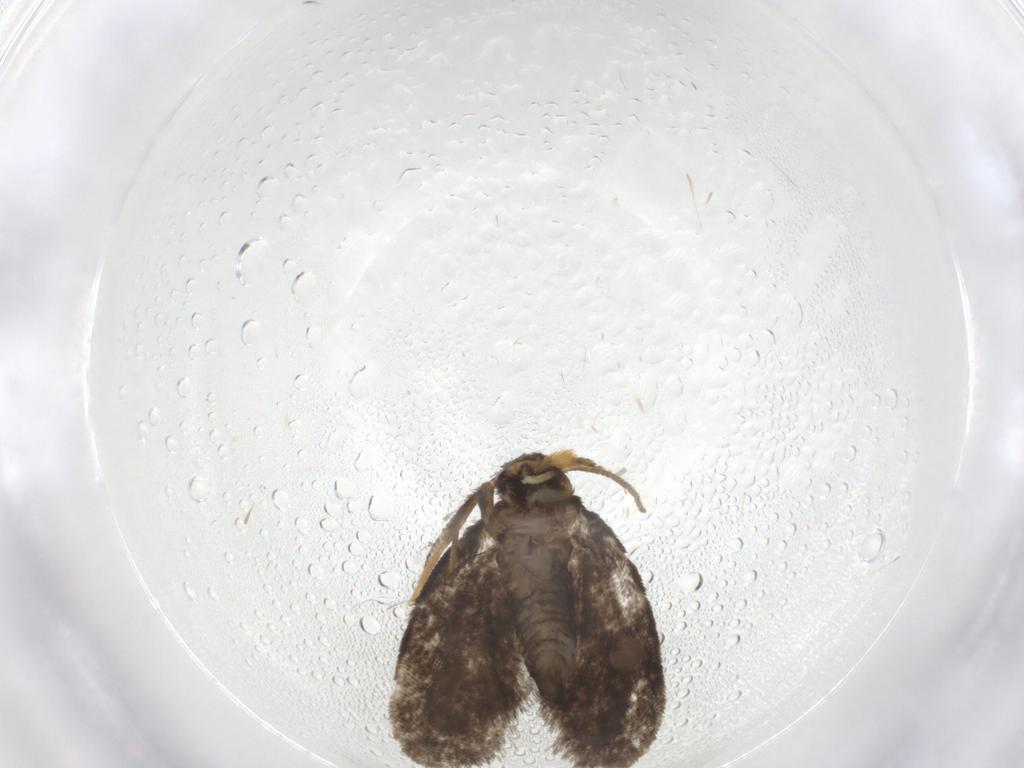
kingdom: Animalia
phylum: Arthropoda
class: Insecta
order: Lepidoptera
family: Psychidae
